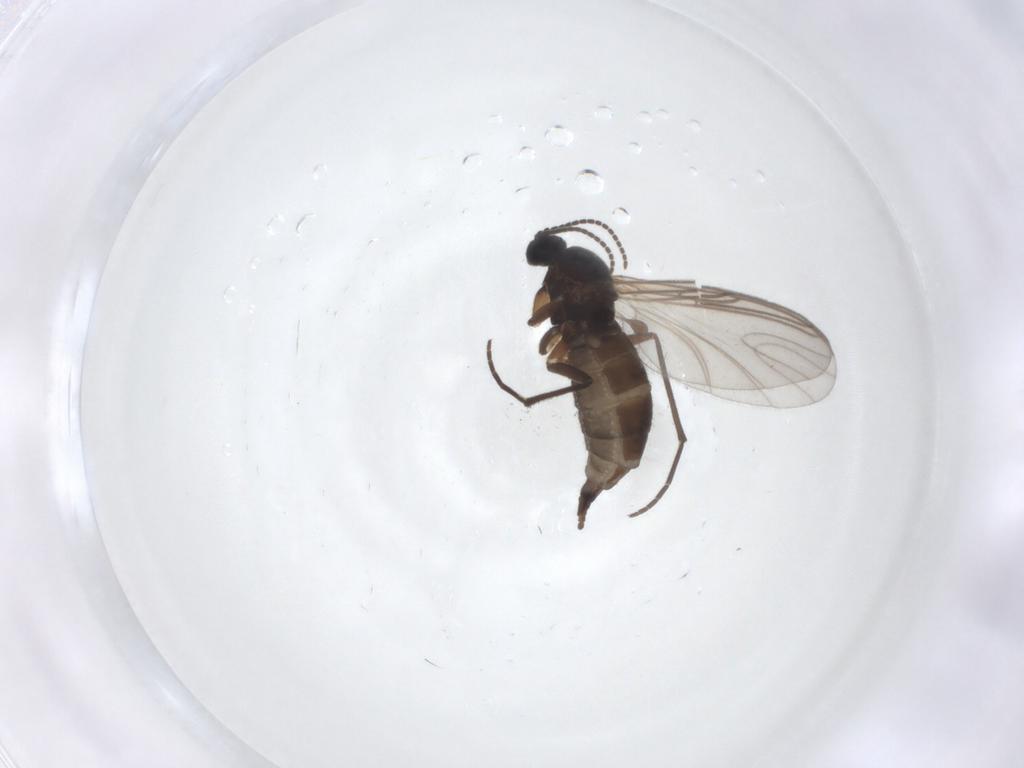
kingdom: Animalia
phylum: Arthropoda
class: Insecta
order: Diptera
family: Sciaridae
